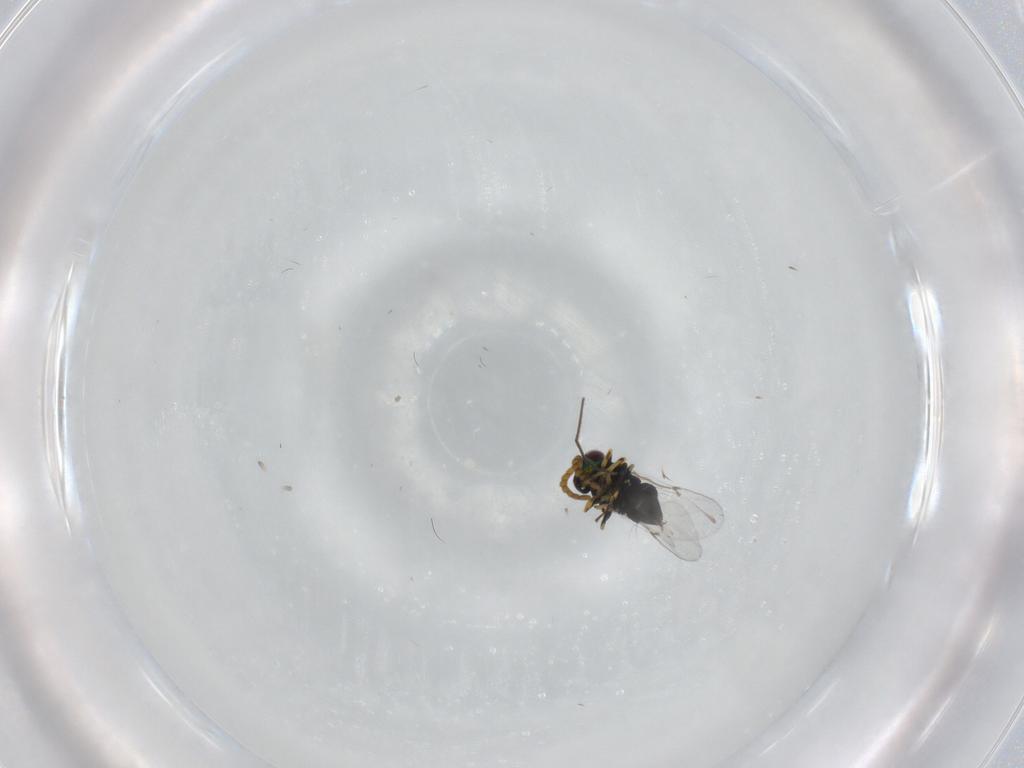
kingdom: Animalia
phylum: Arthropoda
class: Insecta
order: Hymenoptera
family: Encyrtidae
